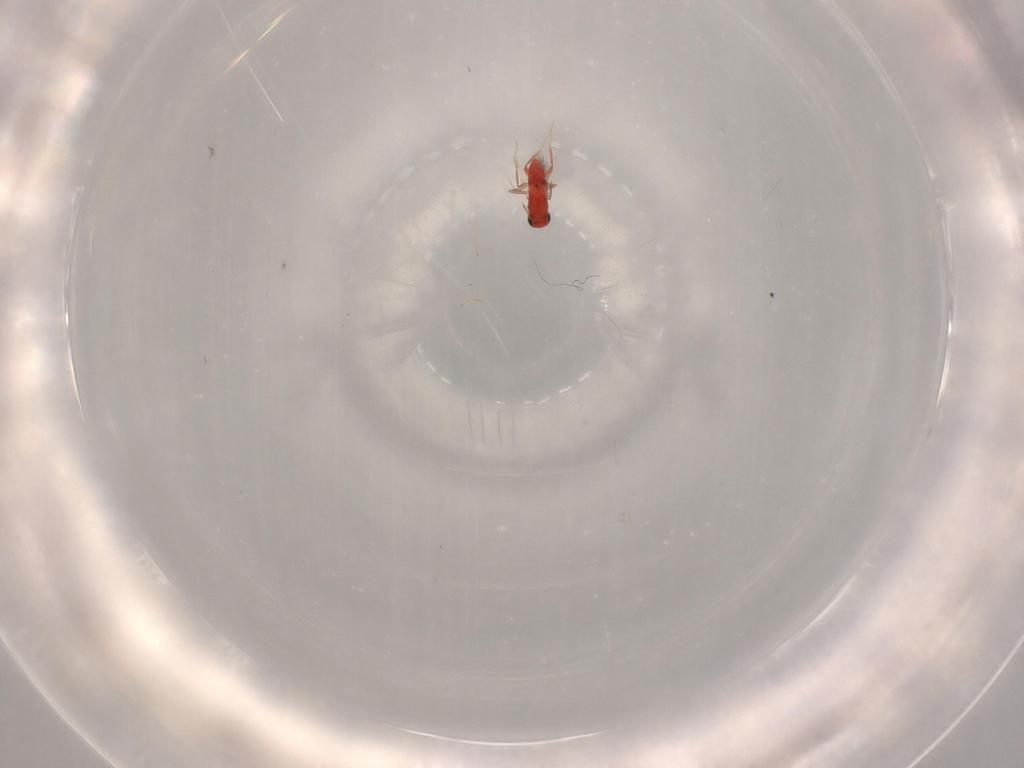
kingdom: Animalia
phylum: Arthropoda
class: Insecta
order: Hymenoptera
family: Trichogrammatidae
